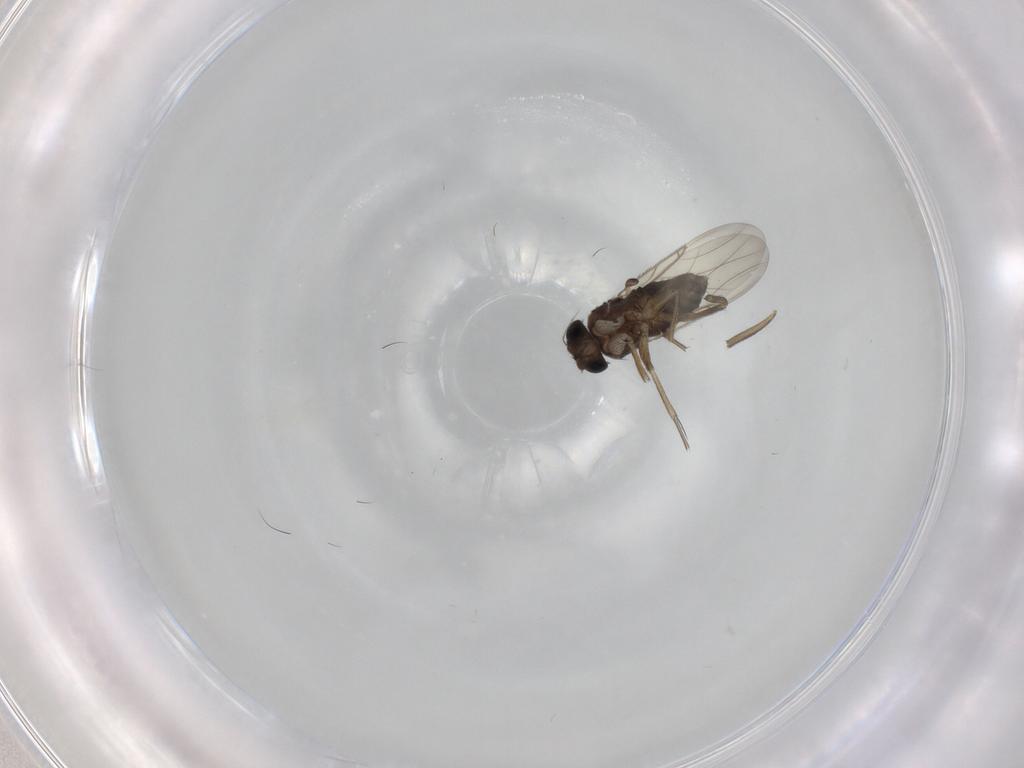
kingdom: Animalia
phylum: Arthropoda
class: Insecta
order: Diptera
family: Phoridae
